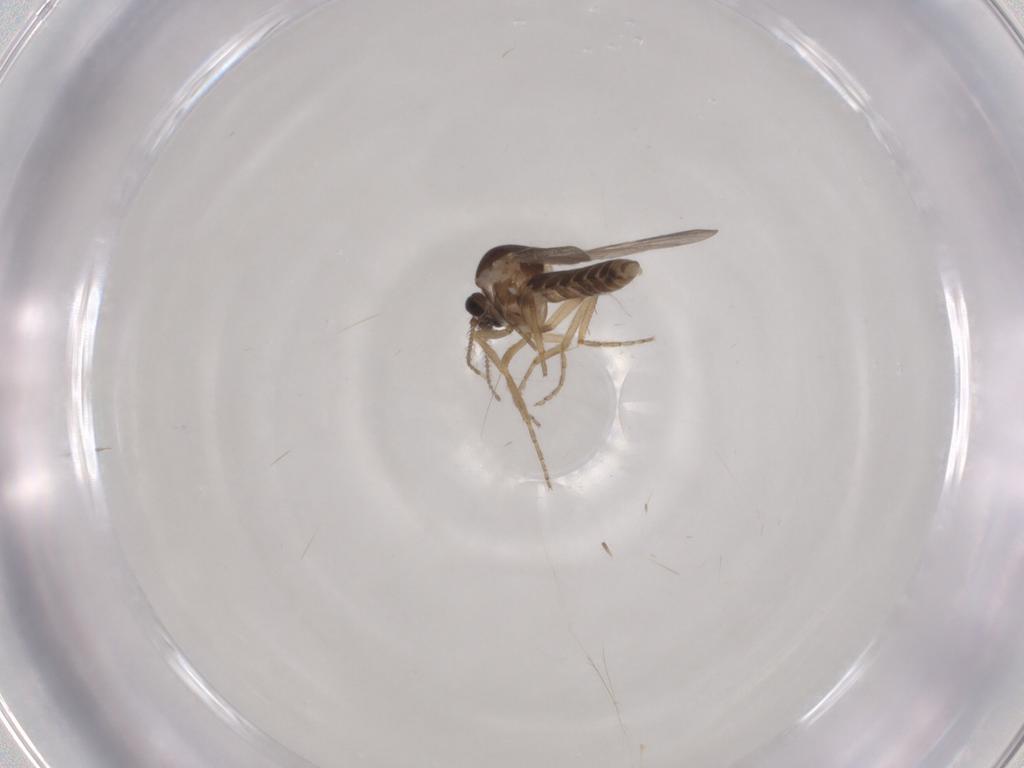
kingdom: Animalia
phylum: Arthropoda
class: Insecta
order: Diptera
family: Ceratopogonidae
